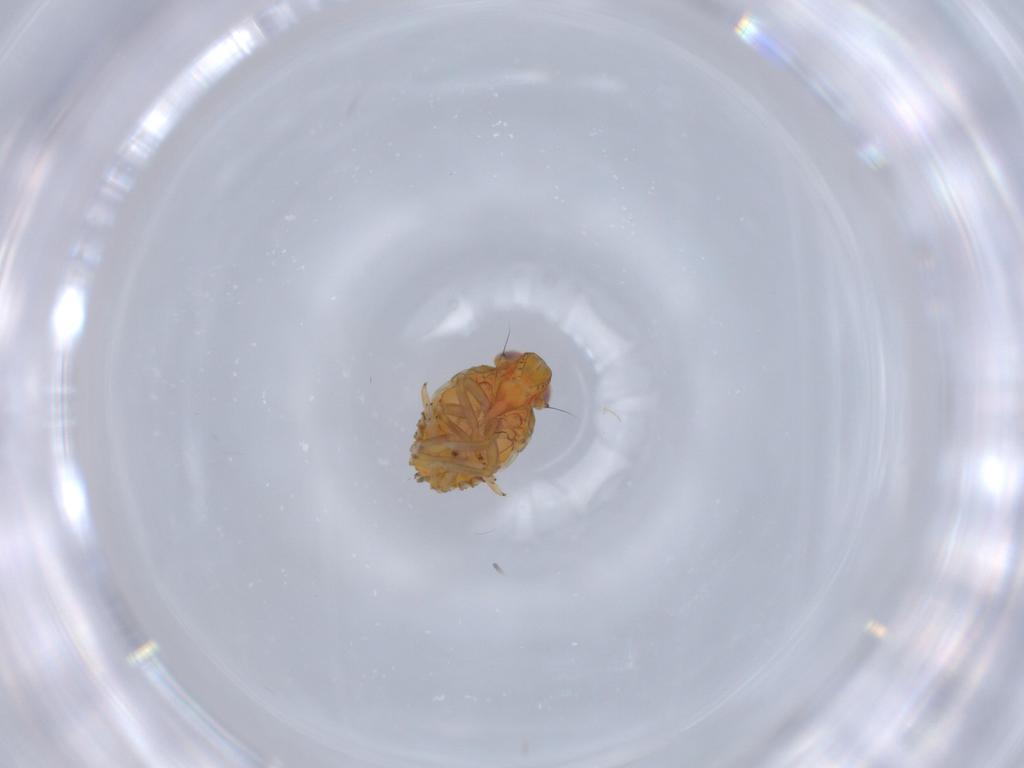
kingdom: Animalia
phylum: Arthropoda
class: Insecta
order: Hemiptera
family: Issidae
